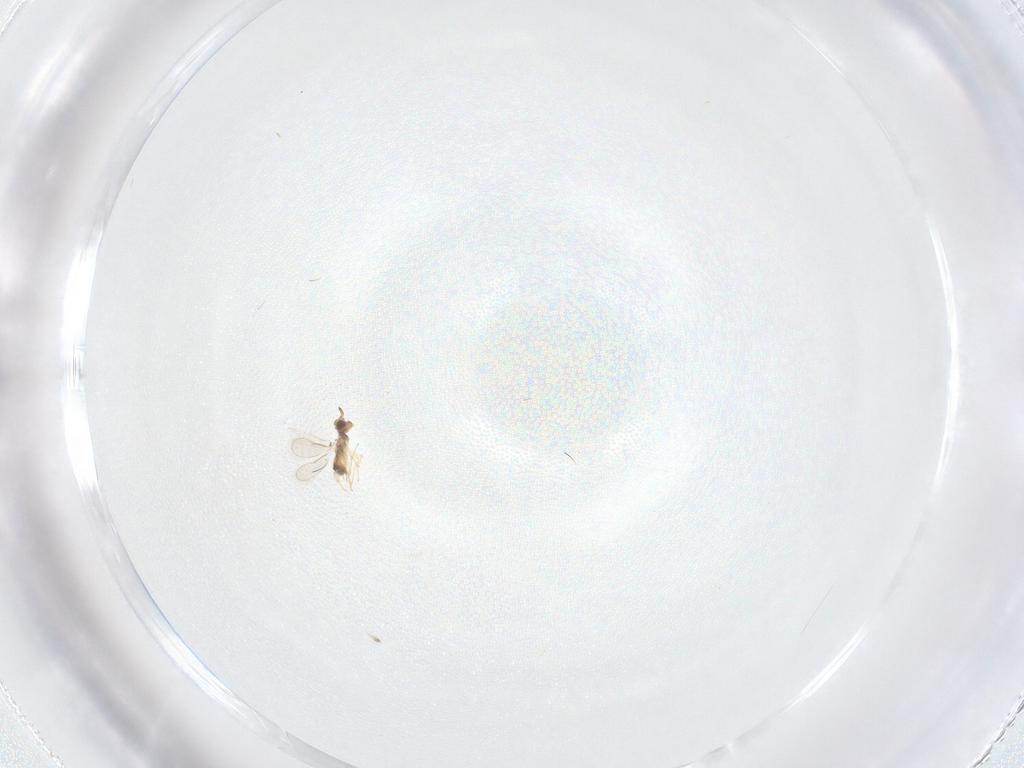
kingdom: Animalia
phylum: Arthropoda
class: Insecta
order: Hymenoptera
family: Aphelinidae
